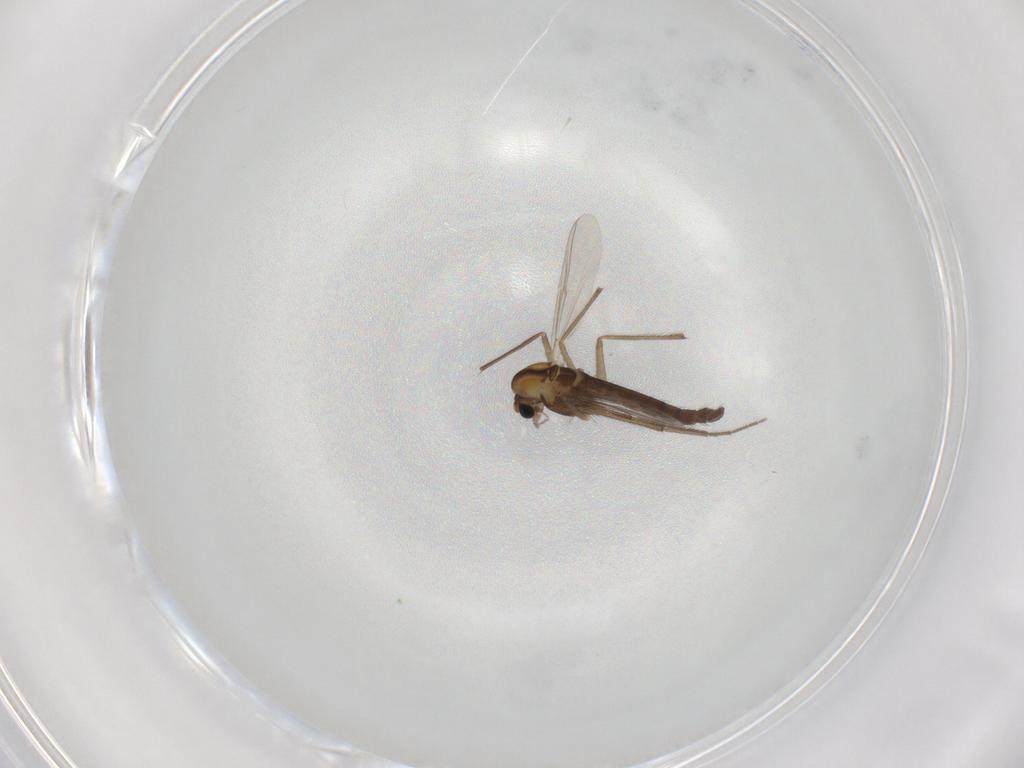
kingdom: Animalia
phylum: Arthropoda
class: Insecta
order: Diptera
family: Chironomidae
